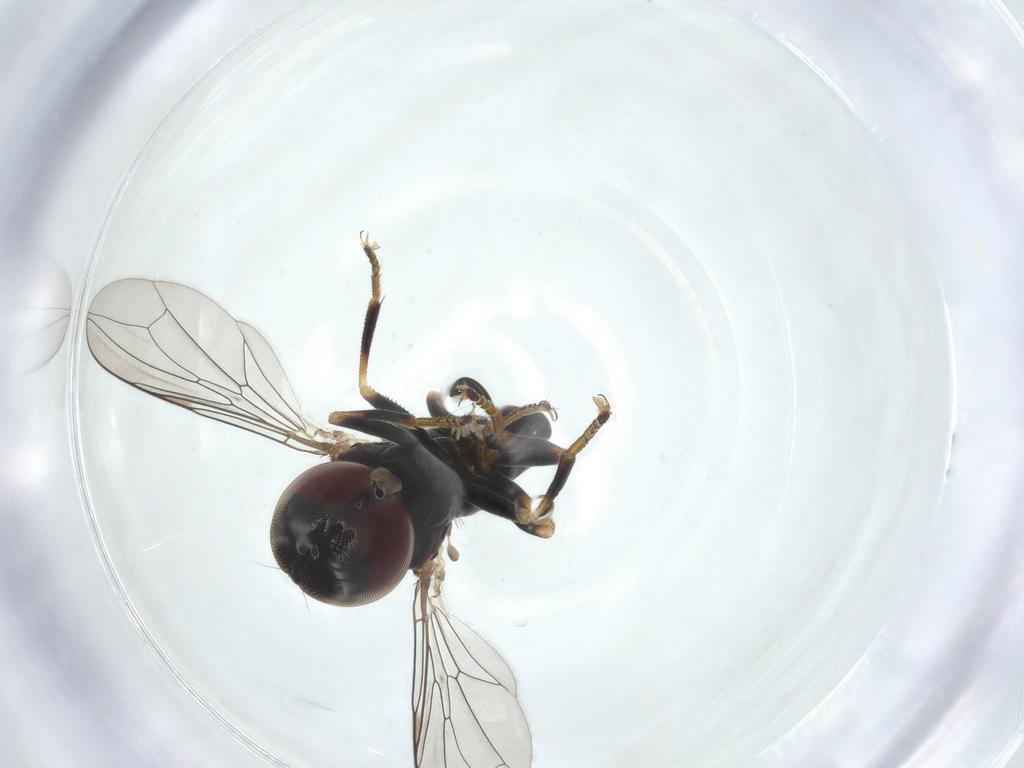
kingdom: Animalia
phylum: Arthropoda
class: Insecta
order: Diptera
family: Pipunculidae
